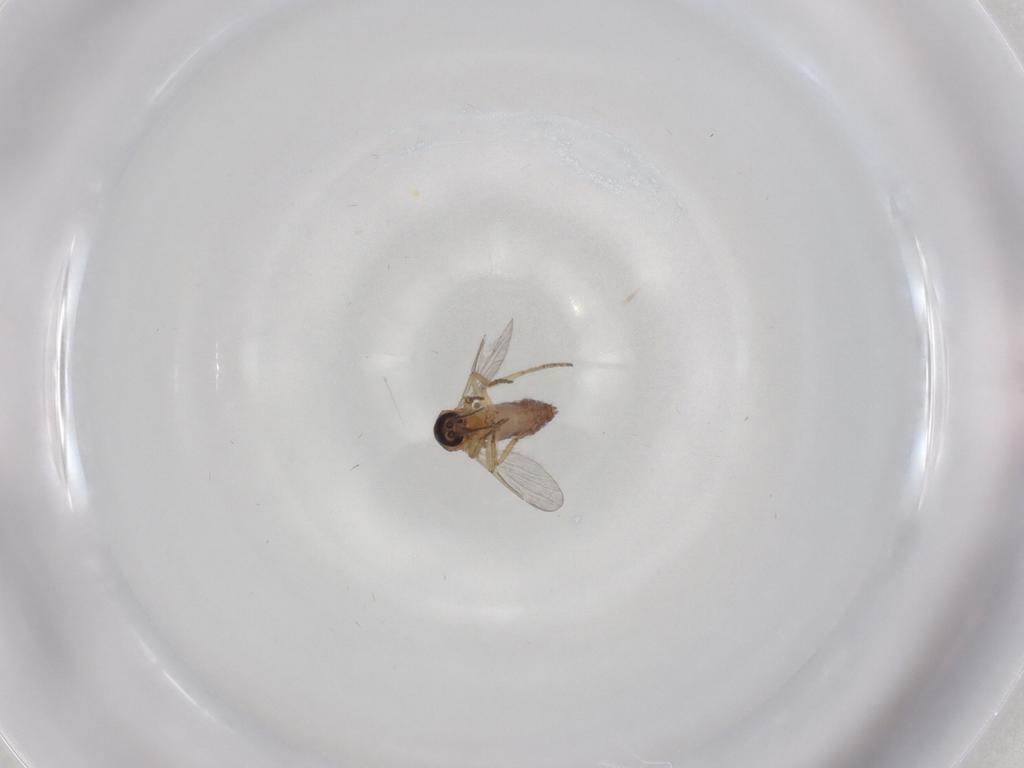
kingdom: Animalia
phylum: Arthropoda
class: Insecta
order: Diptera
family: Ceratopogonidae
